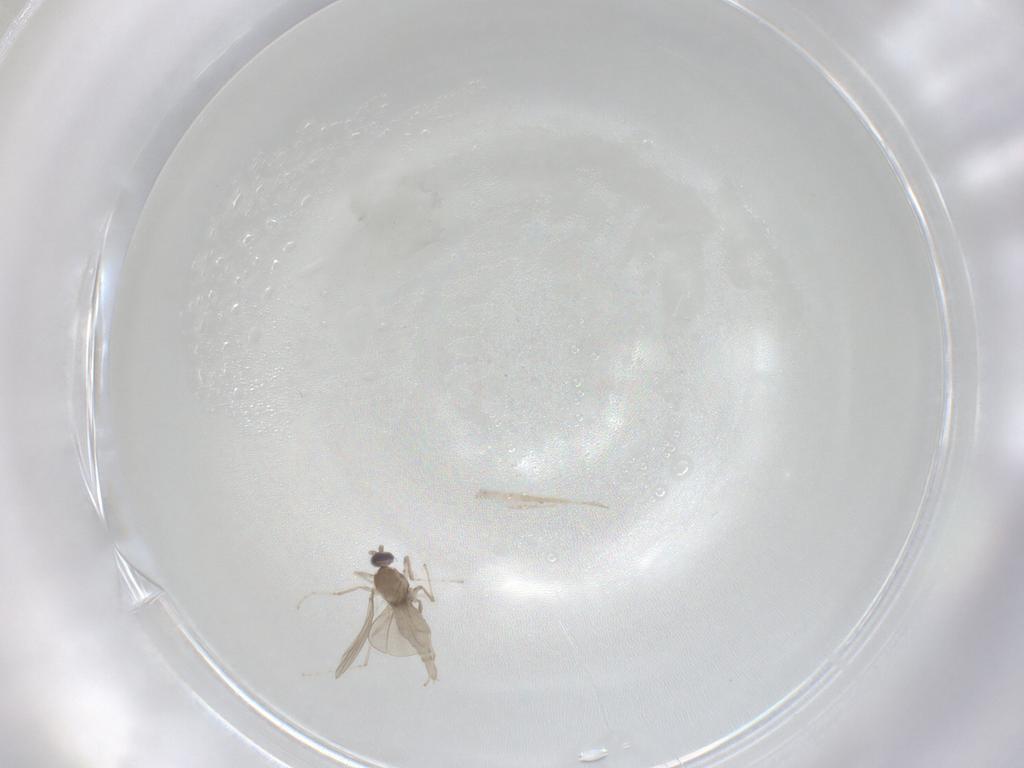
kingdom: Animalia
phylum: Arthropoda
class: Insecta
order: Diptera
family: Cecidomyiidae
